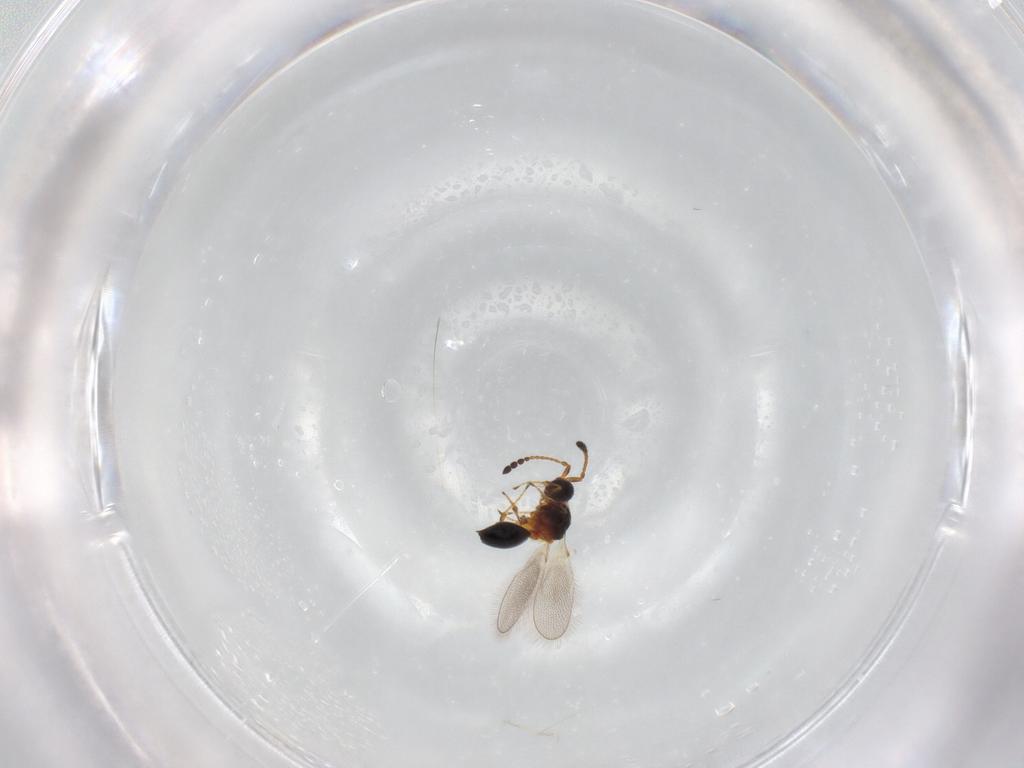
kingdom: Animalia
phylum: Arthropoda
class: Insecta
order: Hymenoptera
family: Diapriidae
